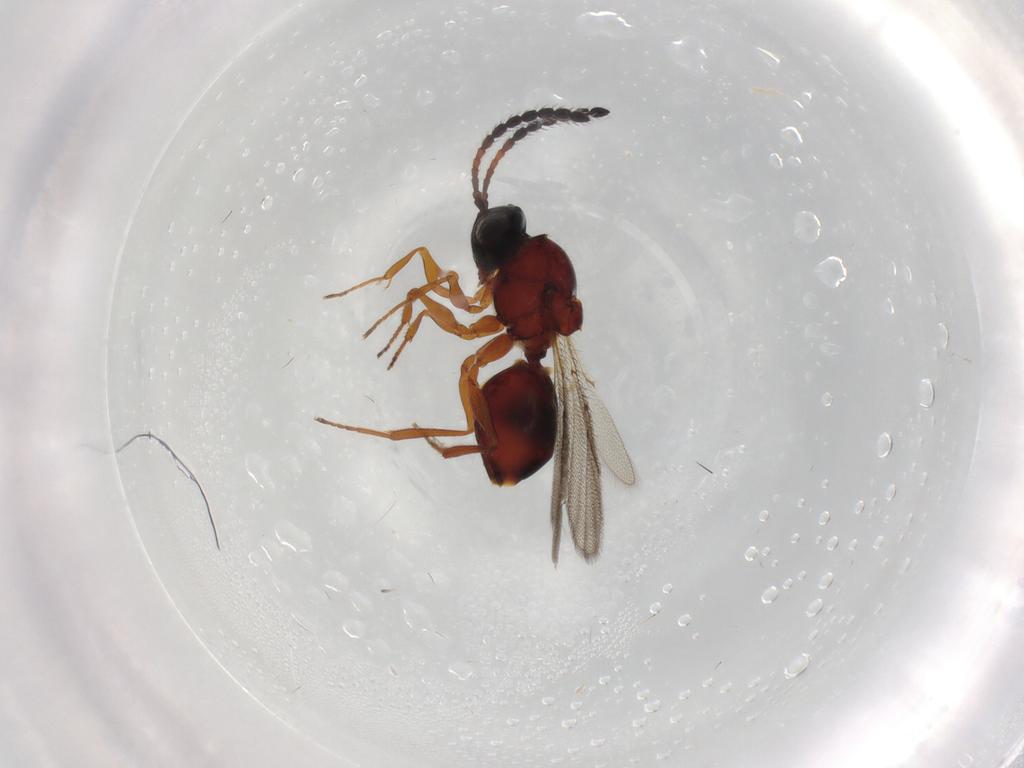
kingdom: Animalia
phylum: Arthropoda
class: Insecta
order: Hymenoptera
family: Figitidae
